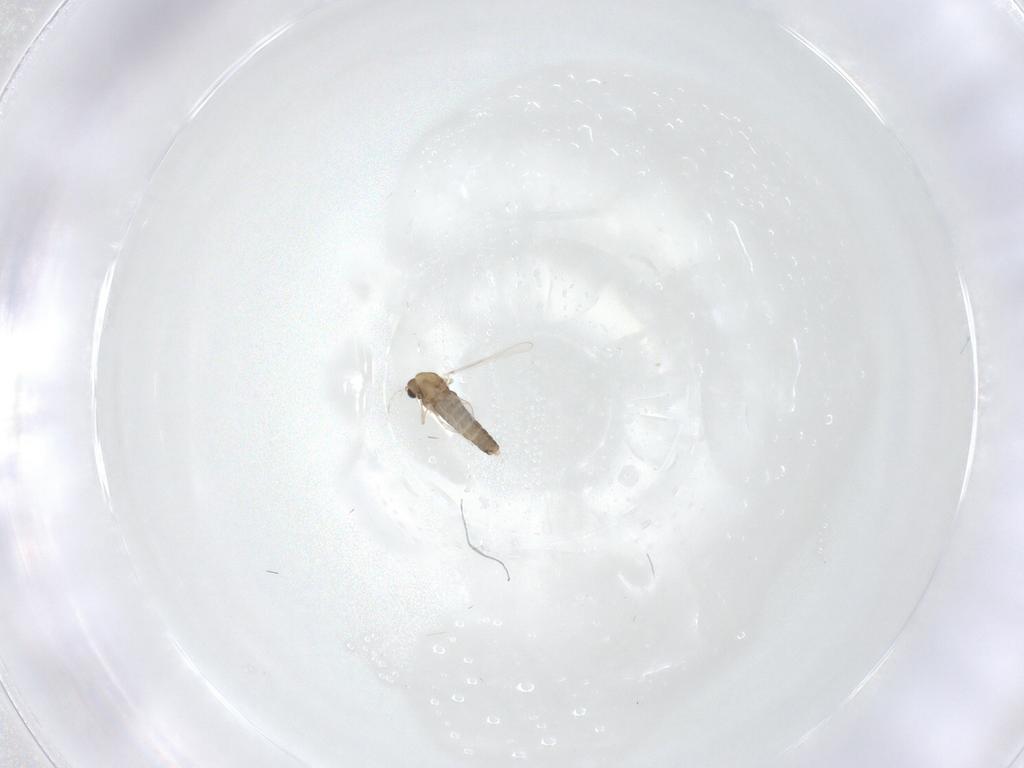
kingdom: Animalia
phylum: Arthropoda
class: Insecta
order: Diptera
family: Chironomidae
